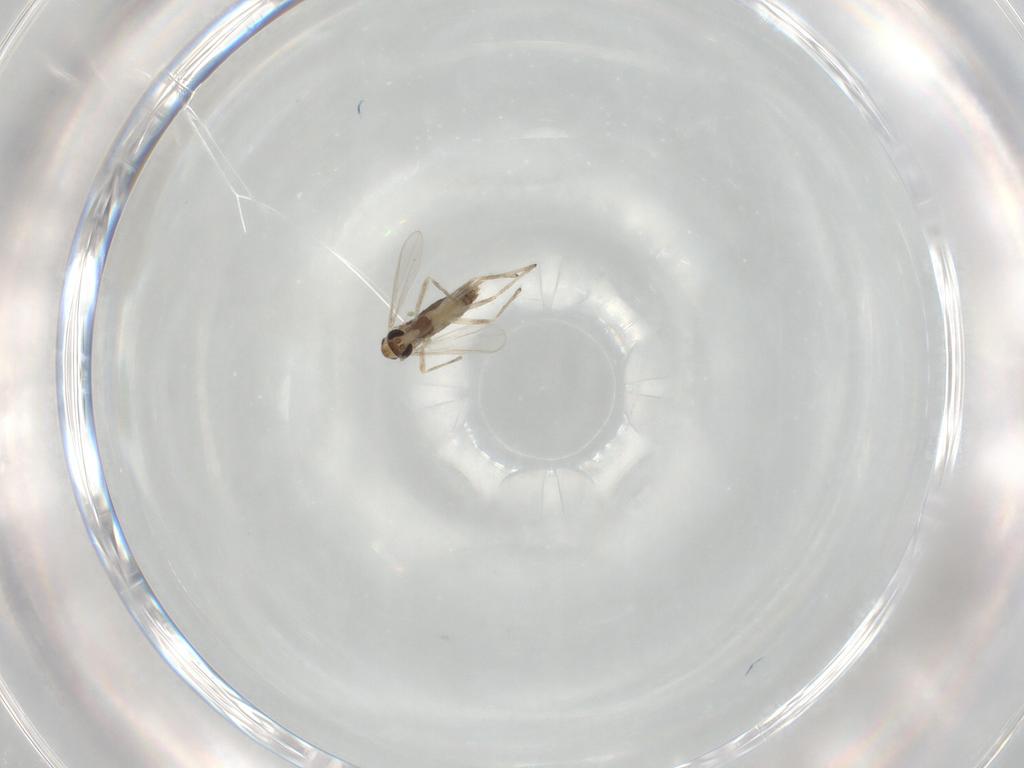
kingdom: Animalia
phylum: Arthropoda
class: Insecta
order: Diptera
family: Chironomidae
